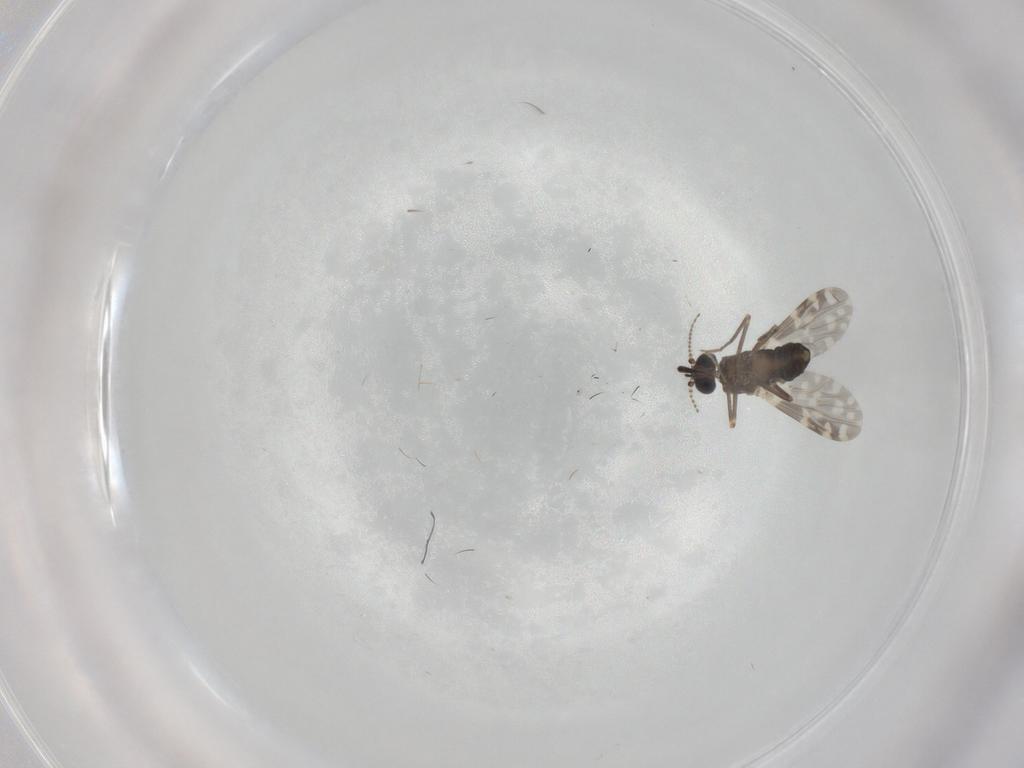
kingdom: Animalia
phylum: Arthropoda
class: Insecta
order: Diptera
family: Ceratopogonidae
